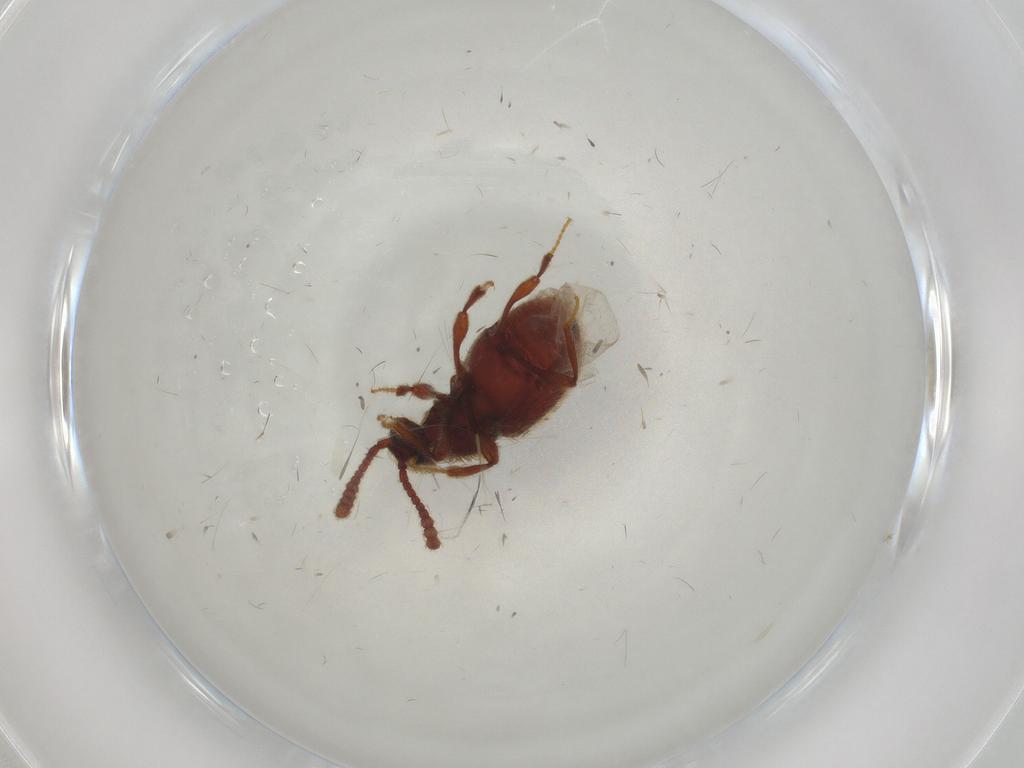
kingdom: Animalia
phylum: Arthropoda
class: Insecta
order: Coleoptera
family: Staphylinidae
